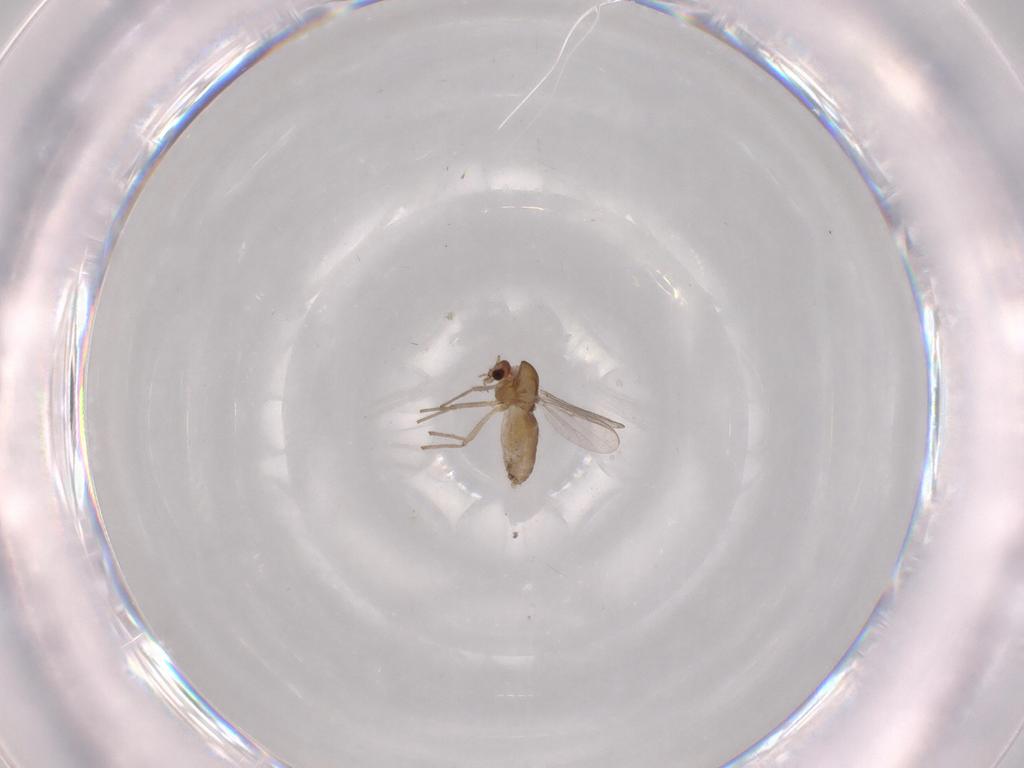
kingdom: Animalia
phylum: Arthropoda
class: Insecta
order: Diptera
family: Chironomidae
